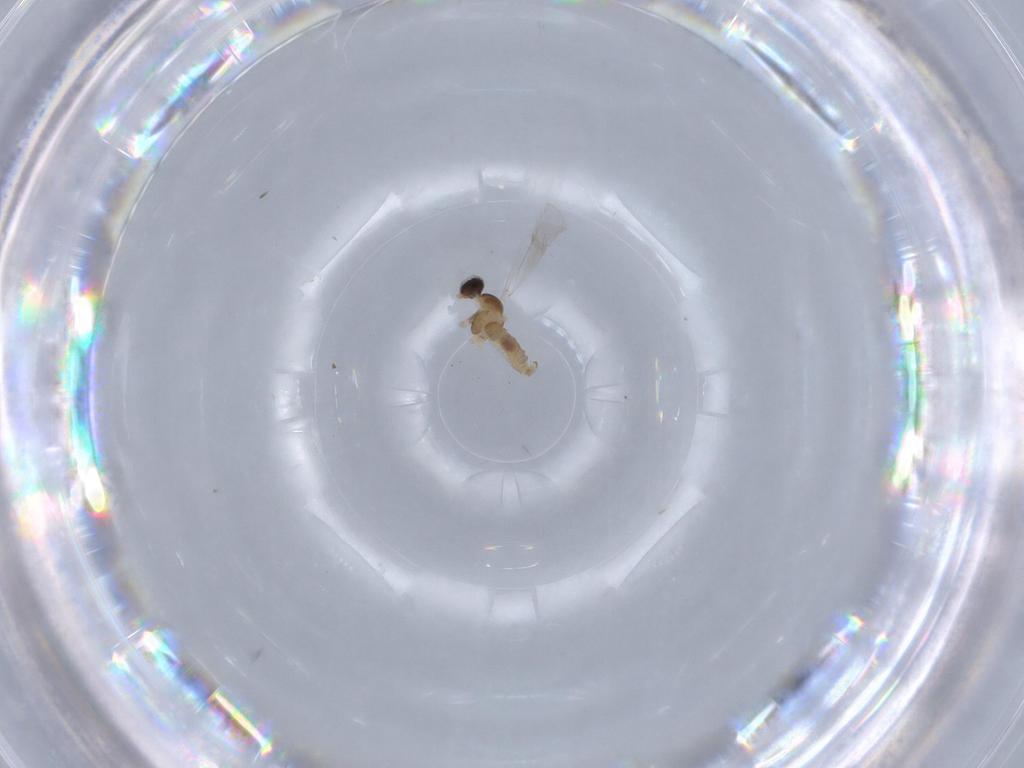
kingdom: Animalia
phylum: Arthropoda
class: Insecta
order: Diptera
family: Cecidomyiidae
